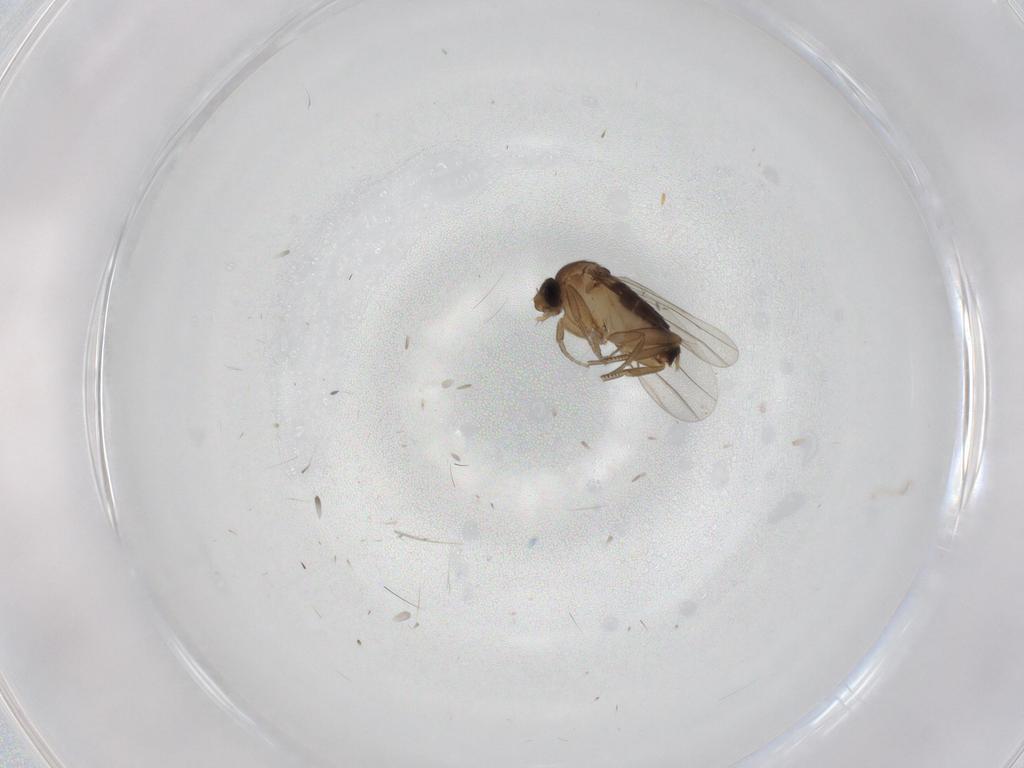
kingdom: Animalia
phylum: Arthropoda
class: Insecta
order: Diptera
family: Phoridae
